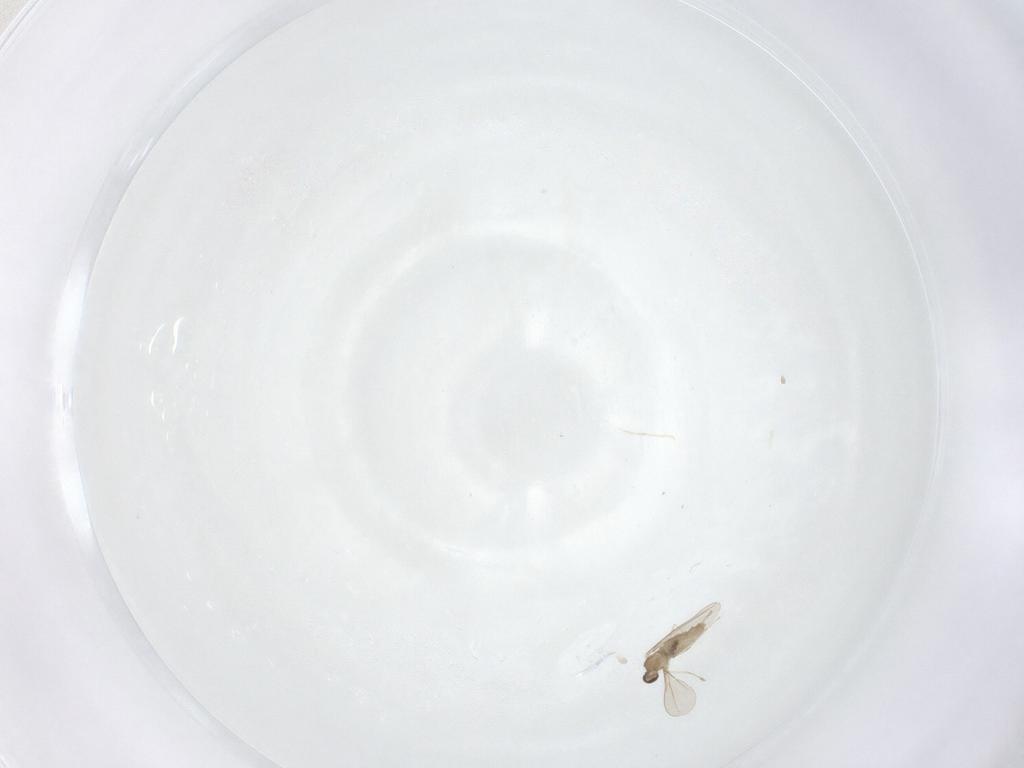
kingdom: Animalia
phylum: Arthropoda
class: Insecta
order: Diptera
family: Cecidomyiidae
